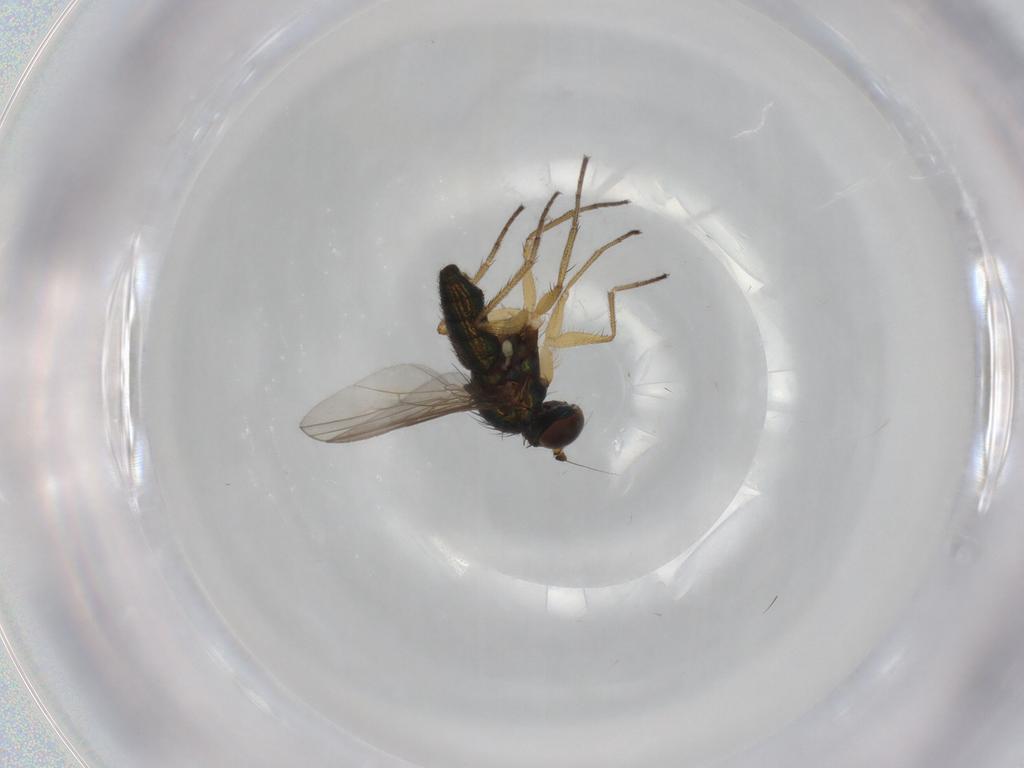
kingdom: Animalia
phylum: Arthropoda
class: Insecta
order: Diptera
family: Dolichopodidae
